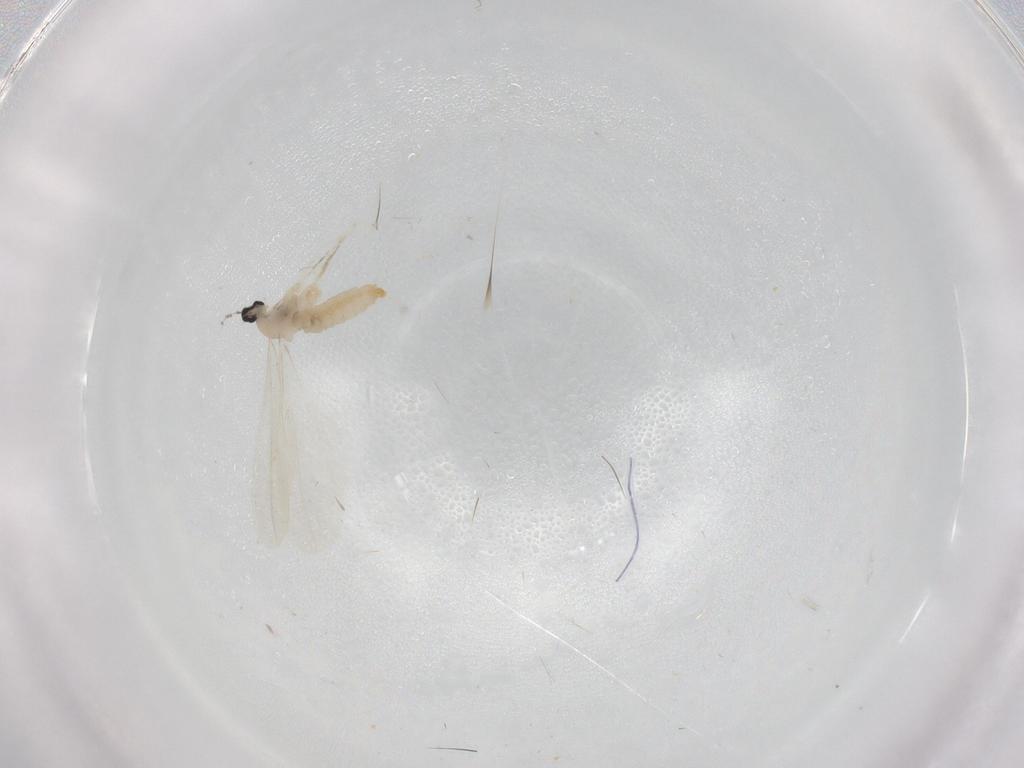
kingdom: Animalia
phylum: Arthropoda
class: Insecta
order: Diptera
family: Cecidomyiidae
